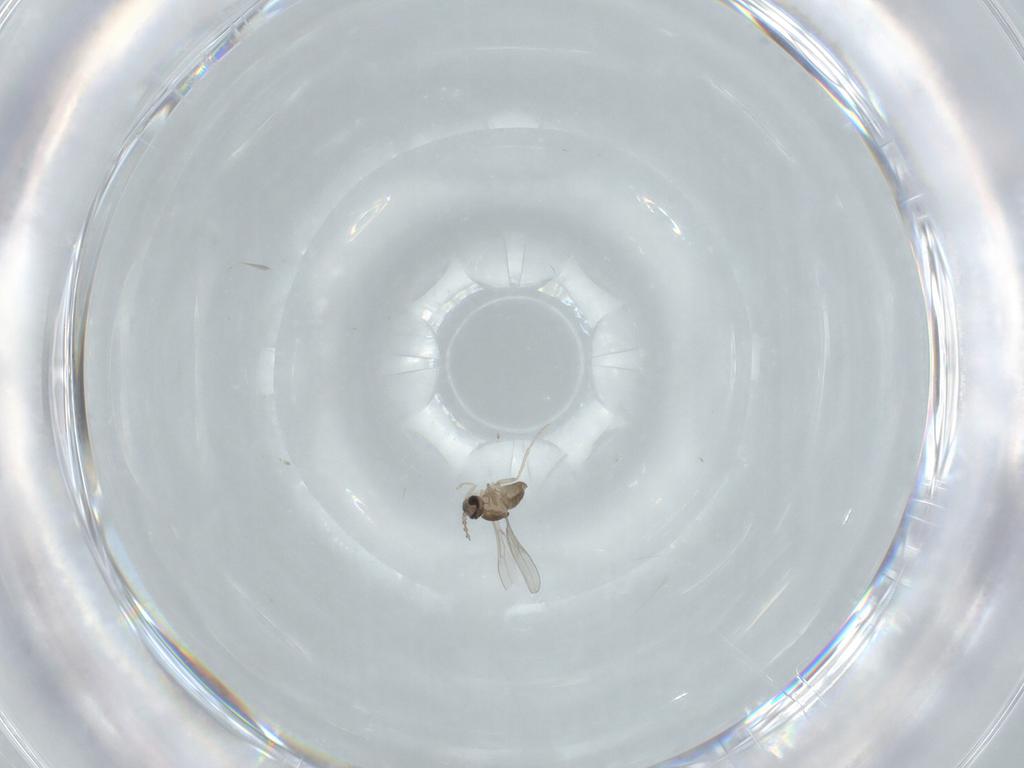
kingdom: Animalia
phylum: Arthropoda
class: Insecta
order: Diptera
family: Cecidomyiidae
